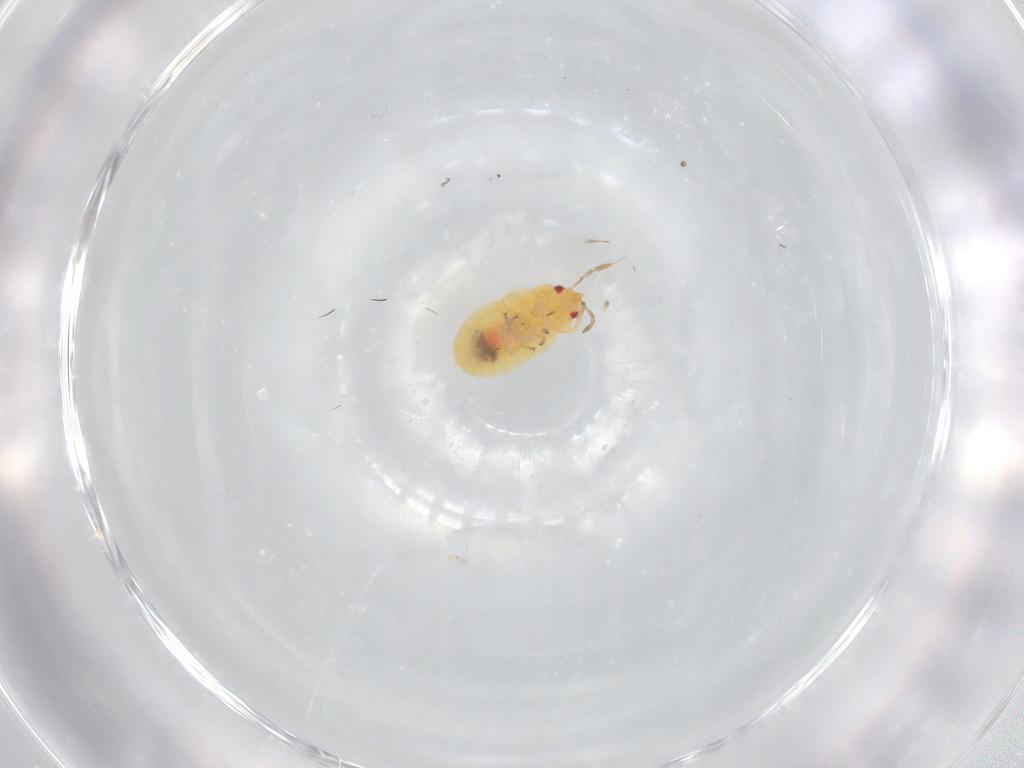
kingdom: Animalia
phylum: Arthropoda
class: Insecta
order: Hemiptera
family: Anthocoridae
